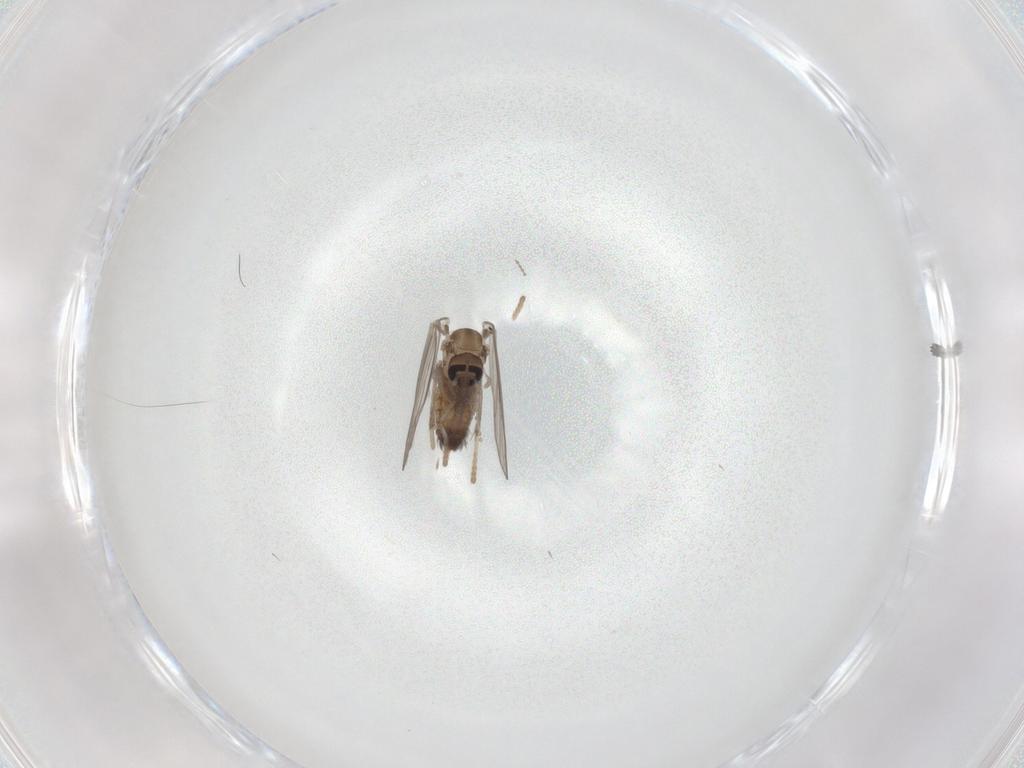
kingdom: Animalia
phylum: Arthropoda
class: Insecta
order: Diptera
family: Psychodidae
